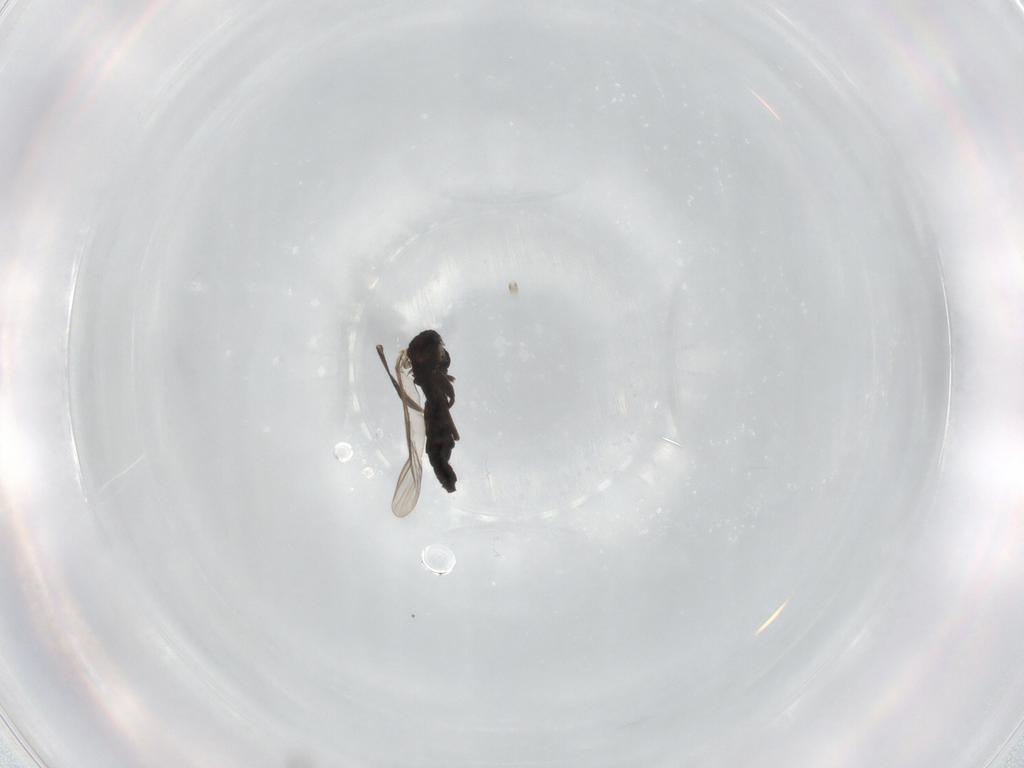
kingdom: Animalia
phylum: Arthropoda
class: Insecta
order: Diptera
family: Chironomidae
